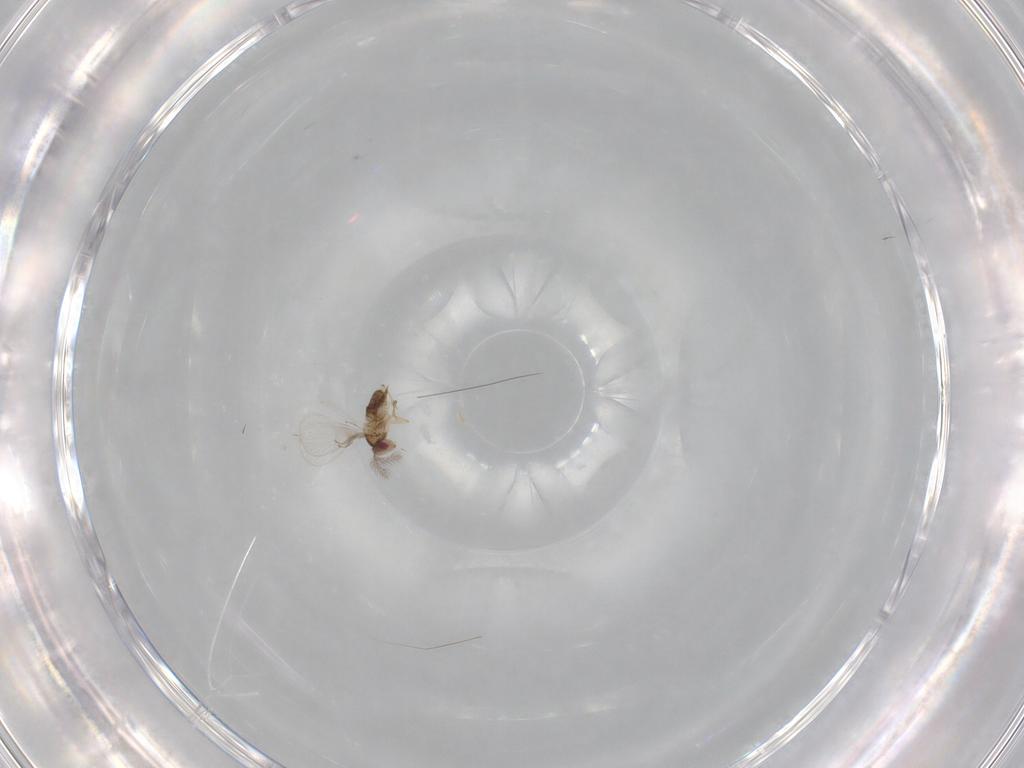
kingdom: Animalia
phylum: Arthropoda
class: Insecta
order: Hymenoptera
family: Trichogrammatidae
